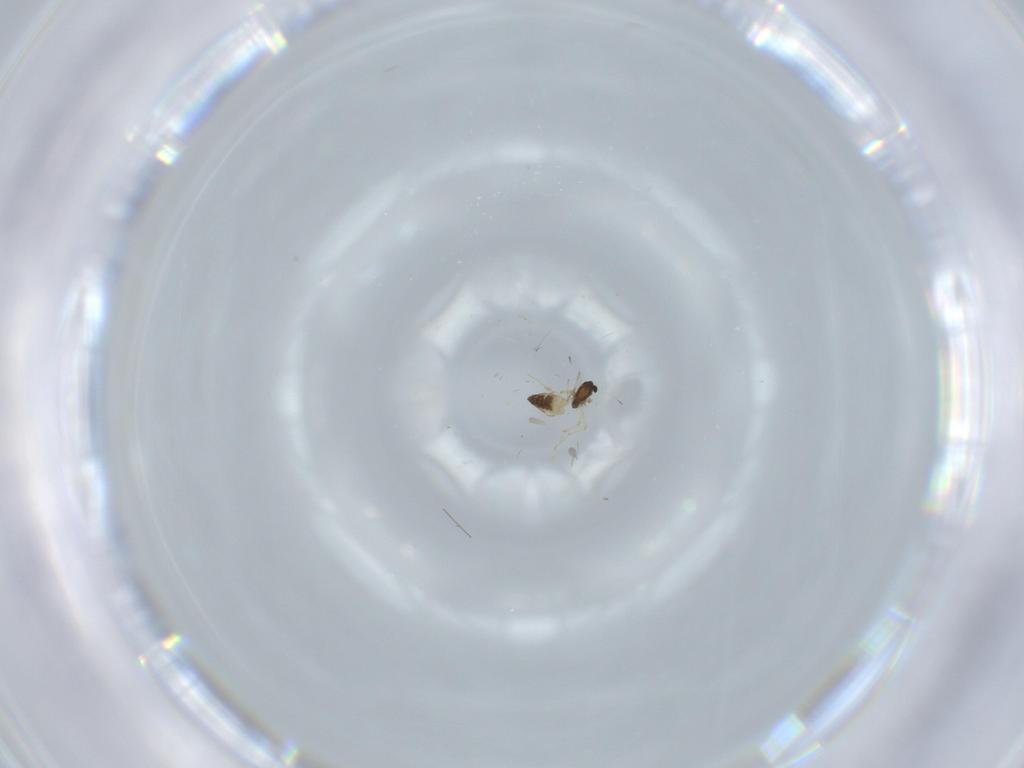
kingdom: Animalia
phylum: Arthropoda
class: Insecta
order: Diptera
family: Chironomidae
